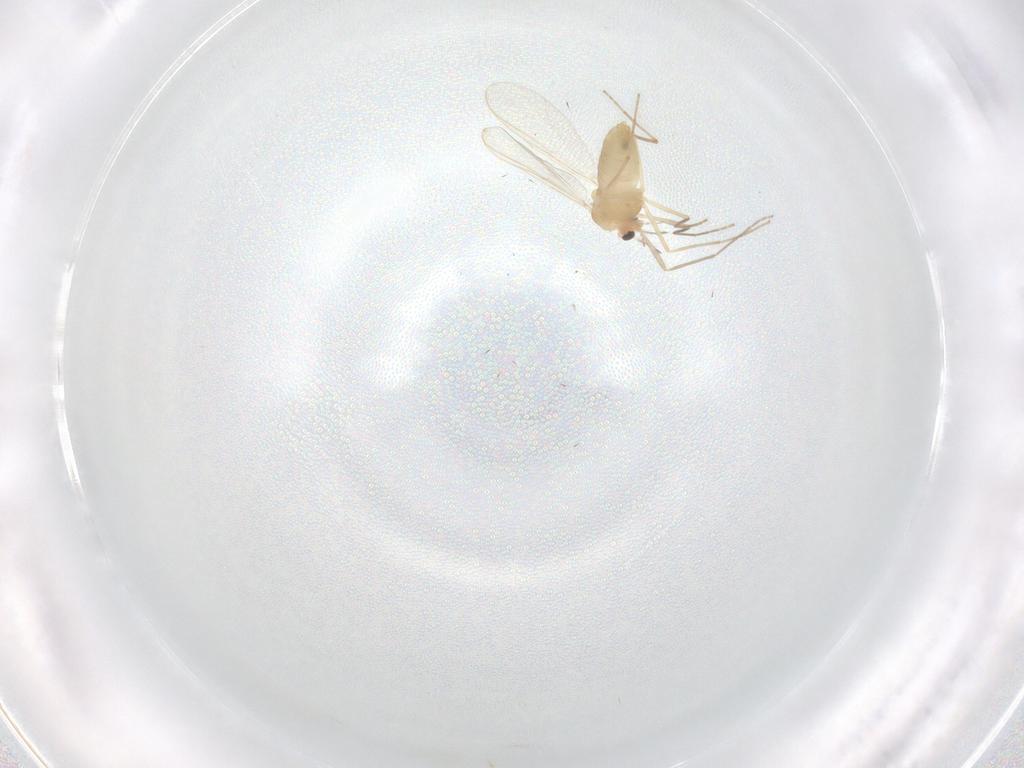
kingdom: Animalia
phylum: Arthropoda
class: Insecta
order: Diptera
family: Chironomidae
